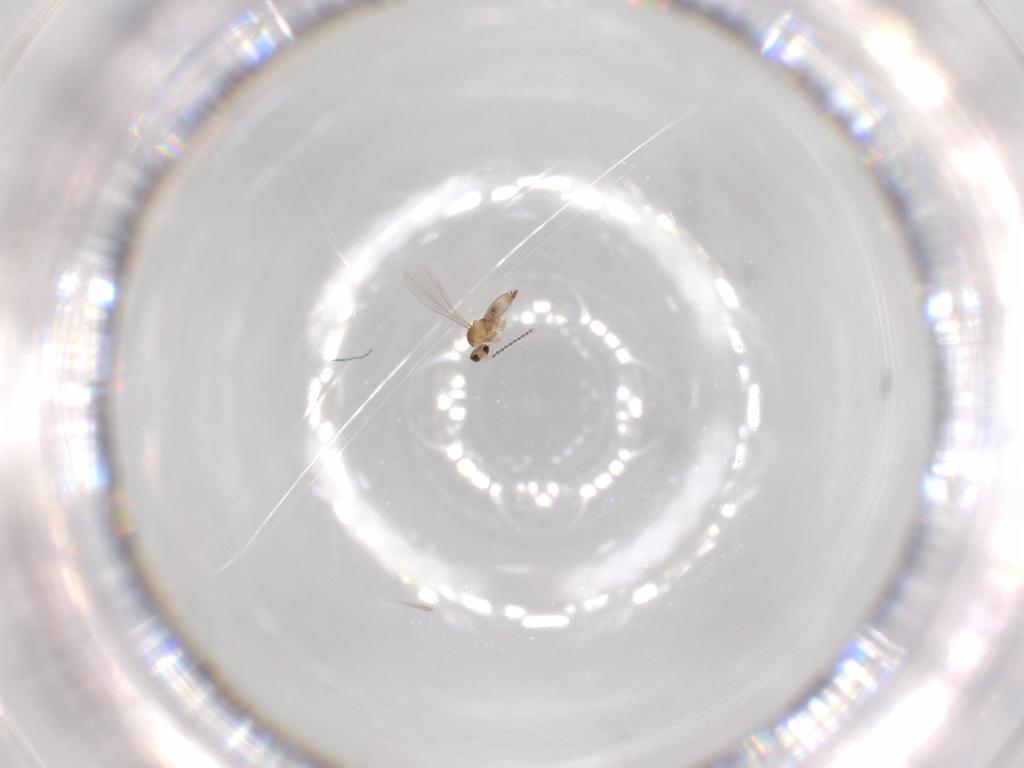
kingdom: Animalia
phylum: Arthropoda
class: Insecta
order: Diptera
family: Cecidomyiidae
